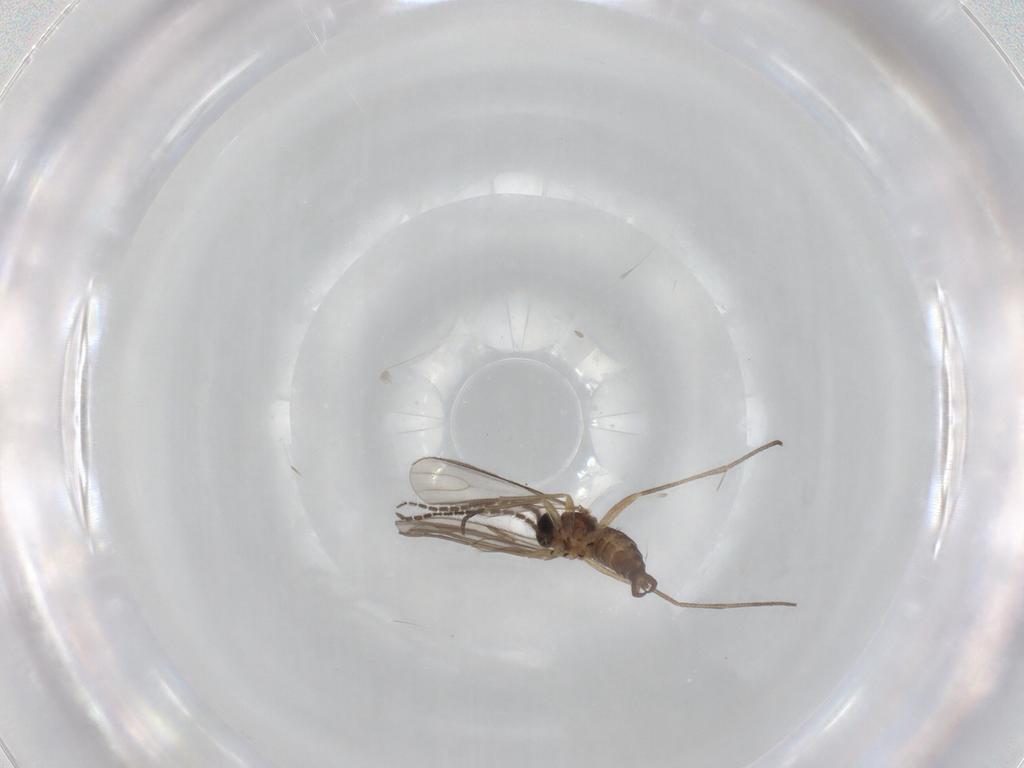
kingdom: Animalia
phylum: Arthropoda
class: Insecta
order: Diptera
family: Sciaridae
